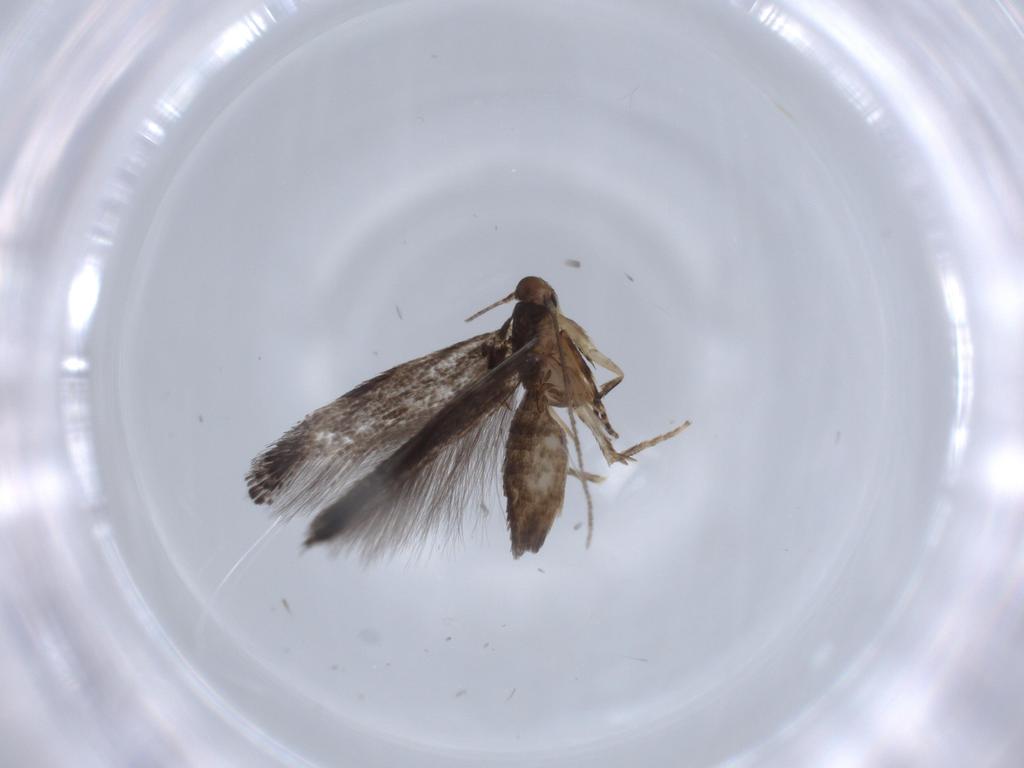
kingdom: Animalia
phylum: Arthropoda
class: Insecta
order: Lepidoptera
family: Gelechiidae
